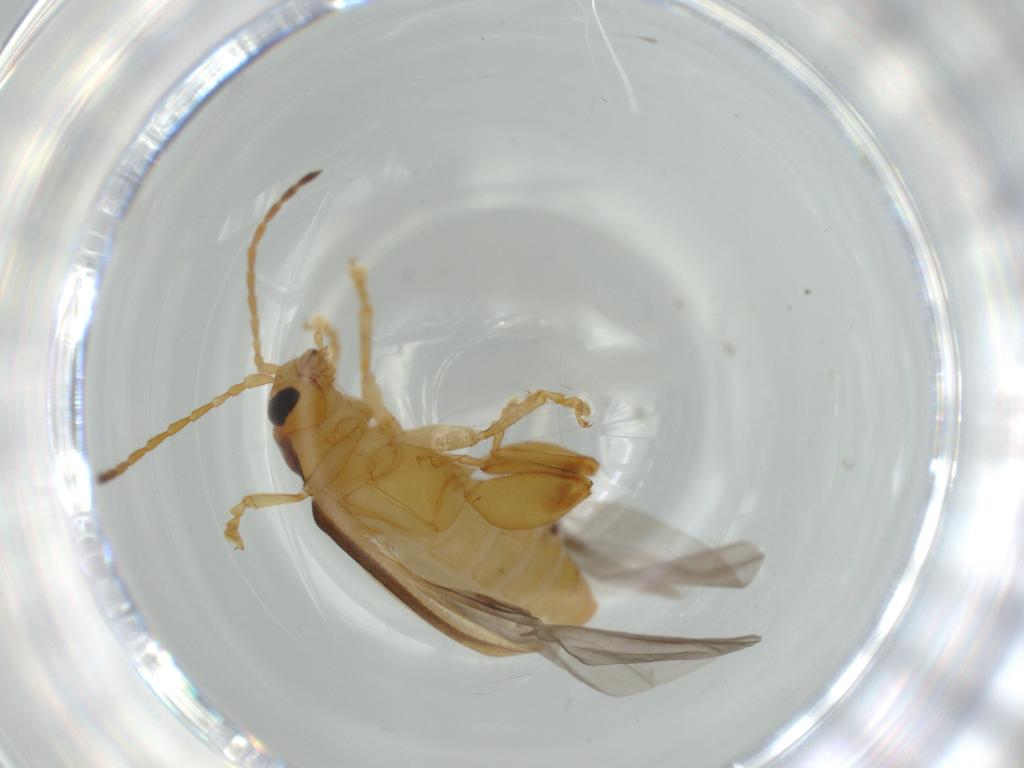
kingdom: Animalia
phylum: Arthropoda
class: Insecta
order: Coleoptera
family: Chrysomelidae
